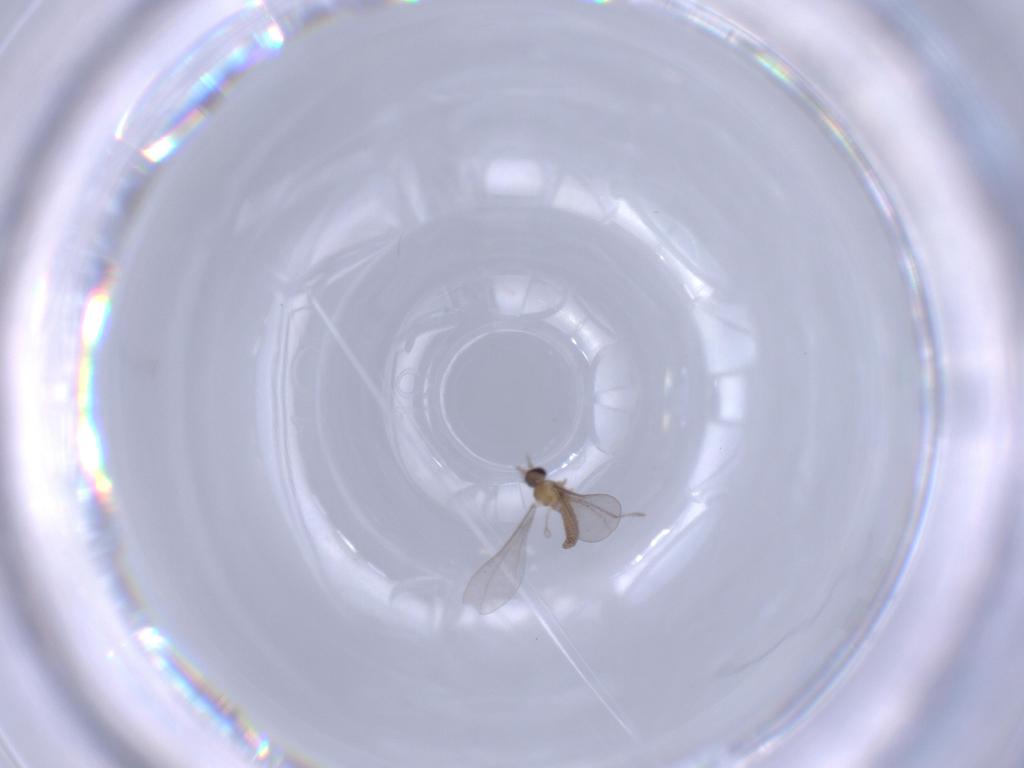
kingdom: Animalia
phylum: Arthropoda
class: Insecta
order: Diptera
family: Cecidomyiidae
